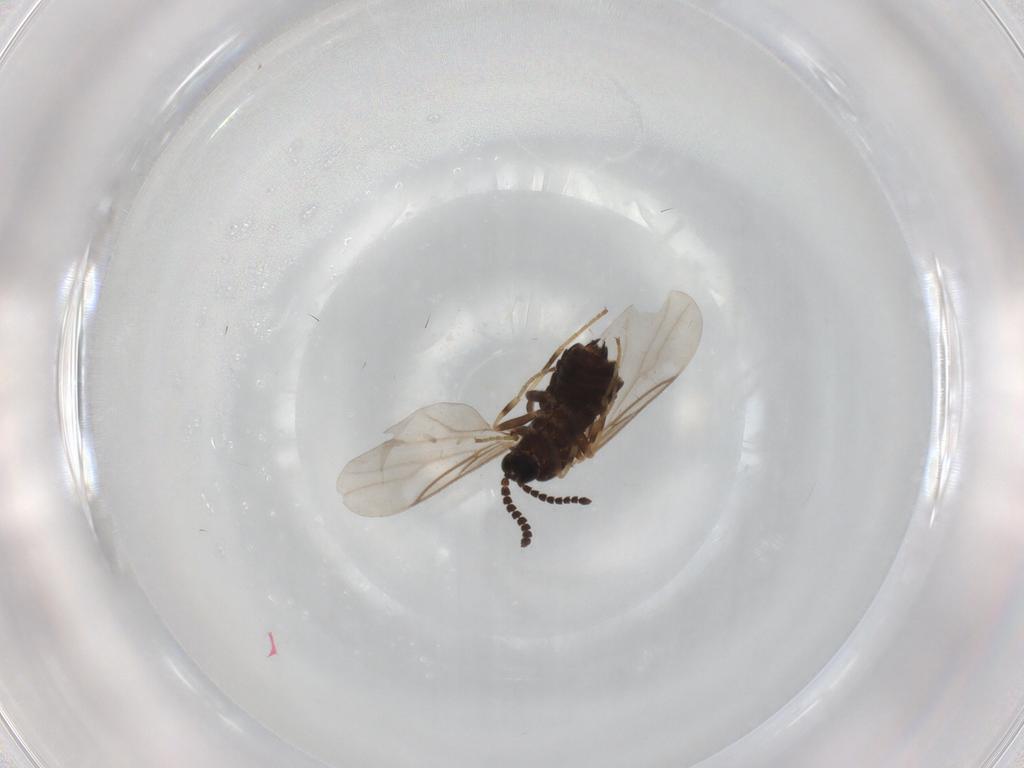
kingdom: Animalia
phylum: Arthropoda
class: Insecta
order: Diptera
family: Scatopsidae
